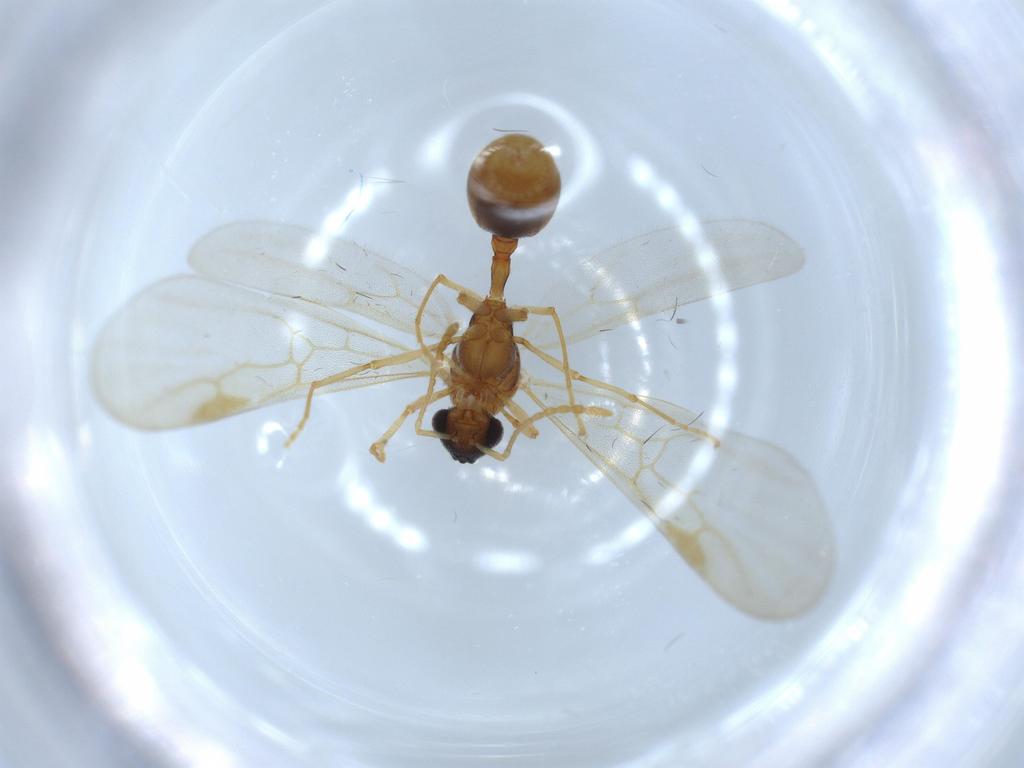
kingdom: Animalia
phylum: Arthropoda
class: Insecta
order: Hymenoptera
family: Formicidae
